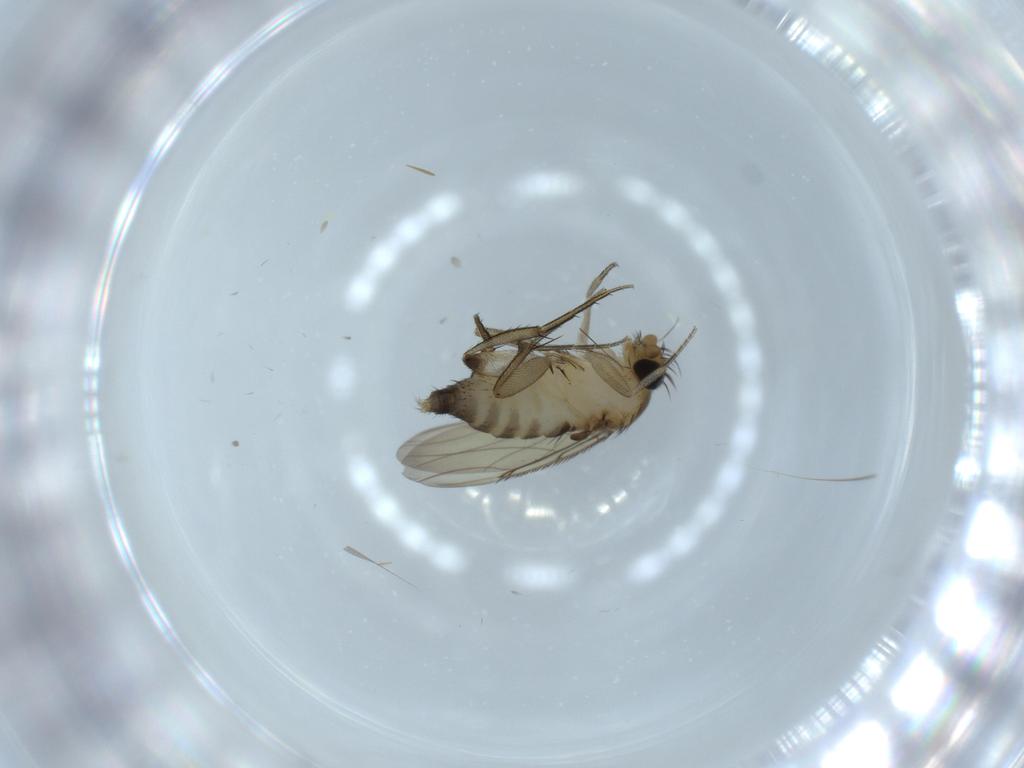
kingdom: Animalia
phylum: Arthropoda
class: Insecta
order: Diptera
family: Phoridae
